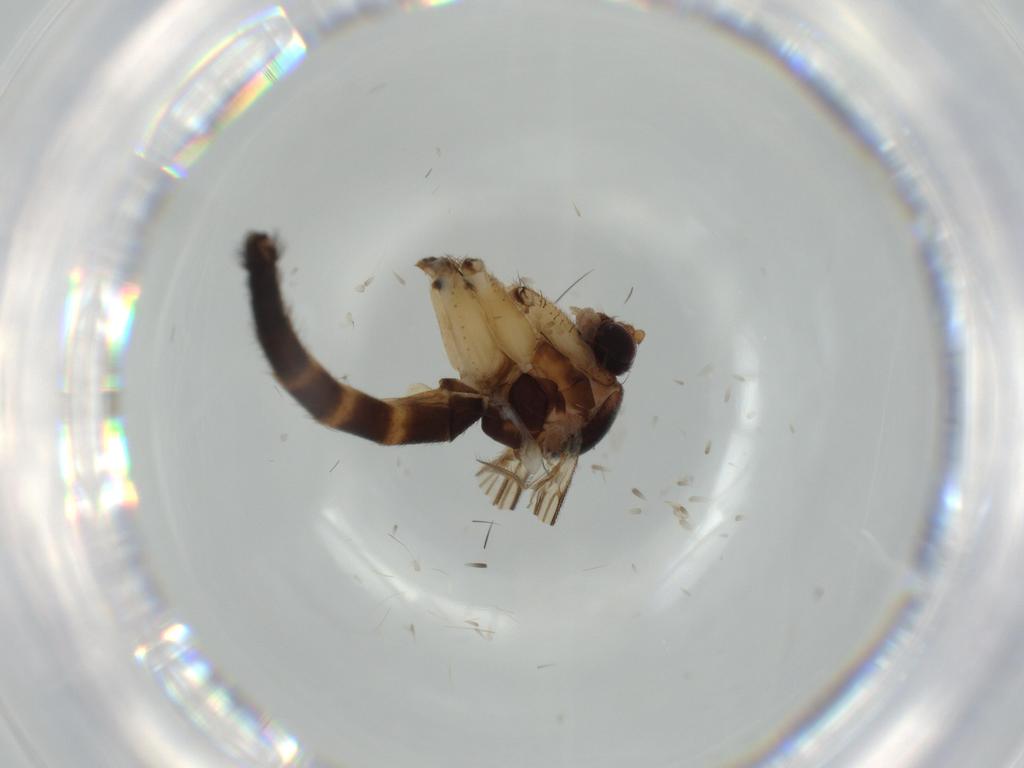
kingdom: Animalia
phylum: Arthropoda
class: Insecta
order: Diptera
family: Cecidomyiidae
